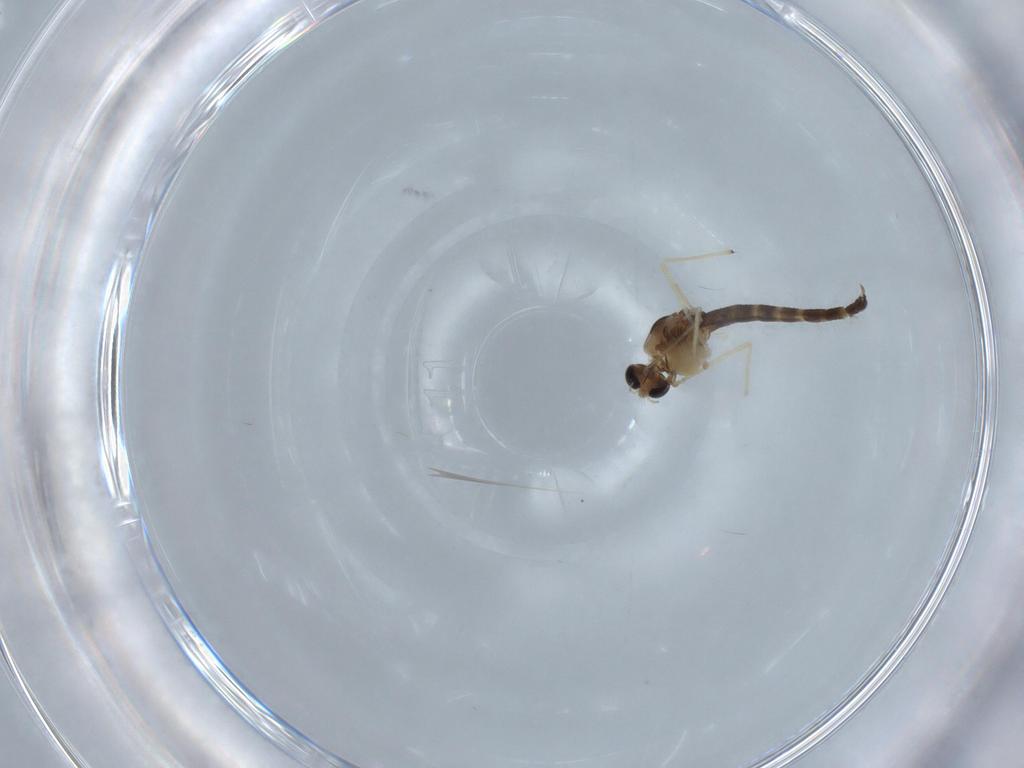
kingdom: Animalia
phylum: Arthropoda
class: Insecta
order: Diptera
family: Chironomidae
